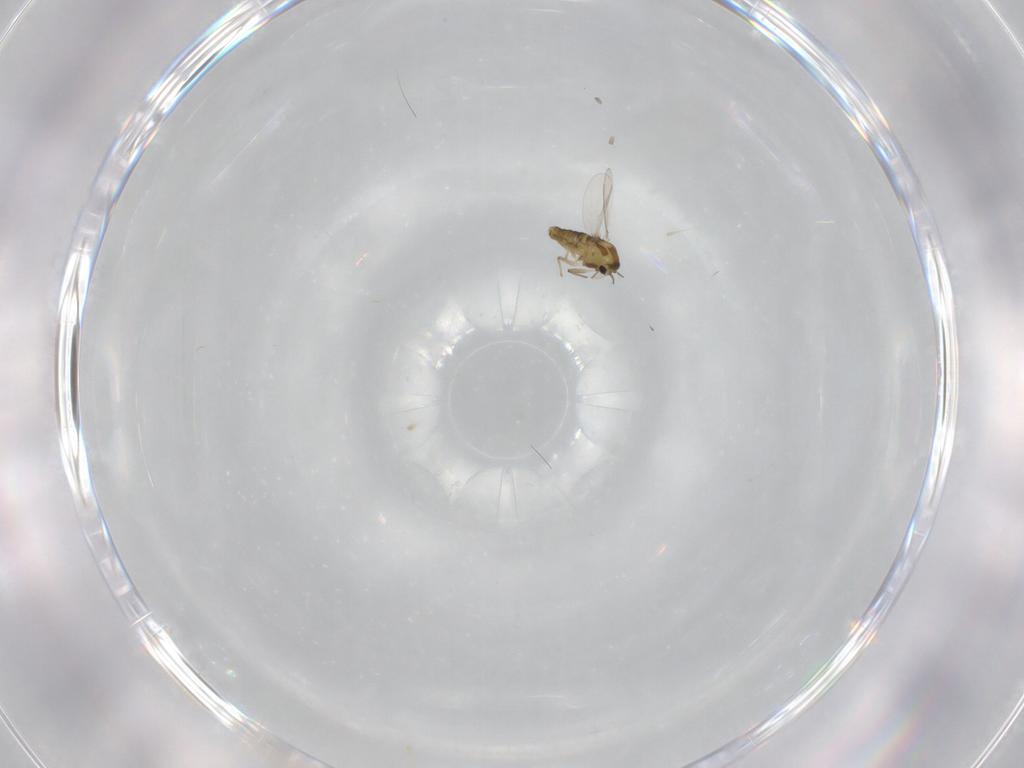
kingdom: Animalia
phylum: Arthropoda
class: Insecta
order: Diptera
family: Chironomidae
